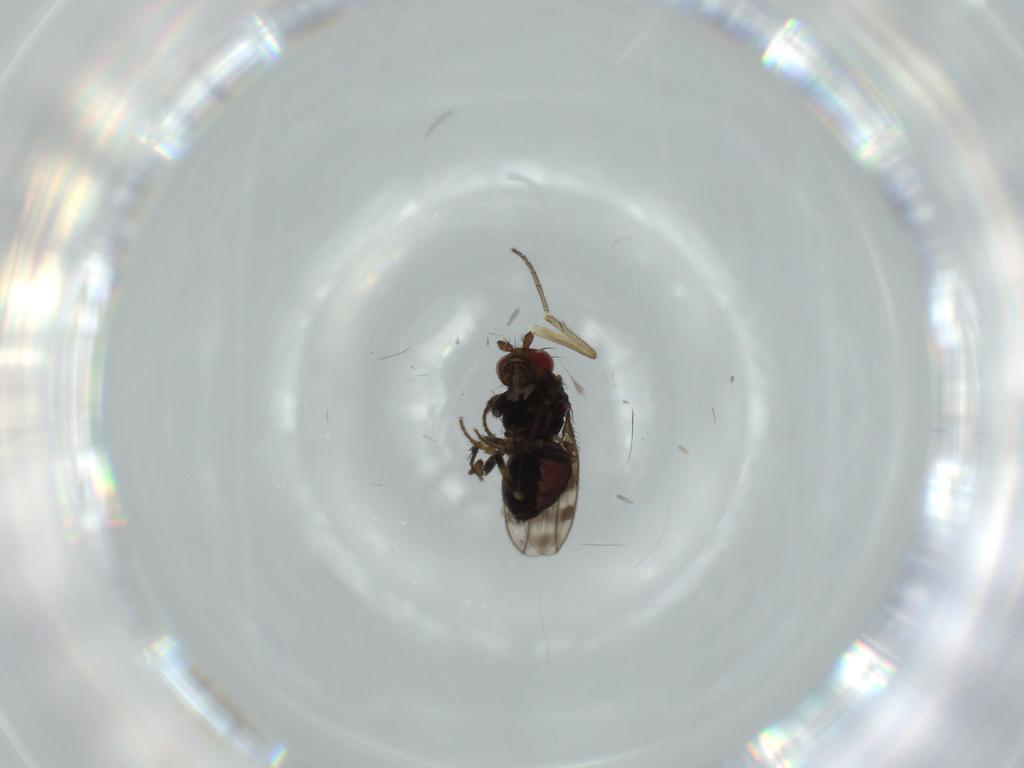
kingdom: Animalia
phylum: Arthropoda
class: Insecta
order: Diptera
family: Sphaeroceridae
